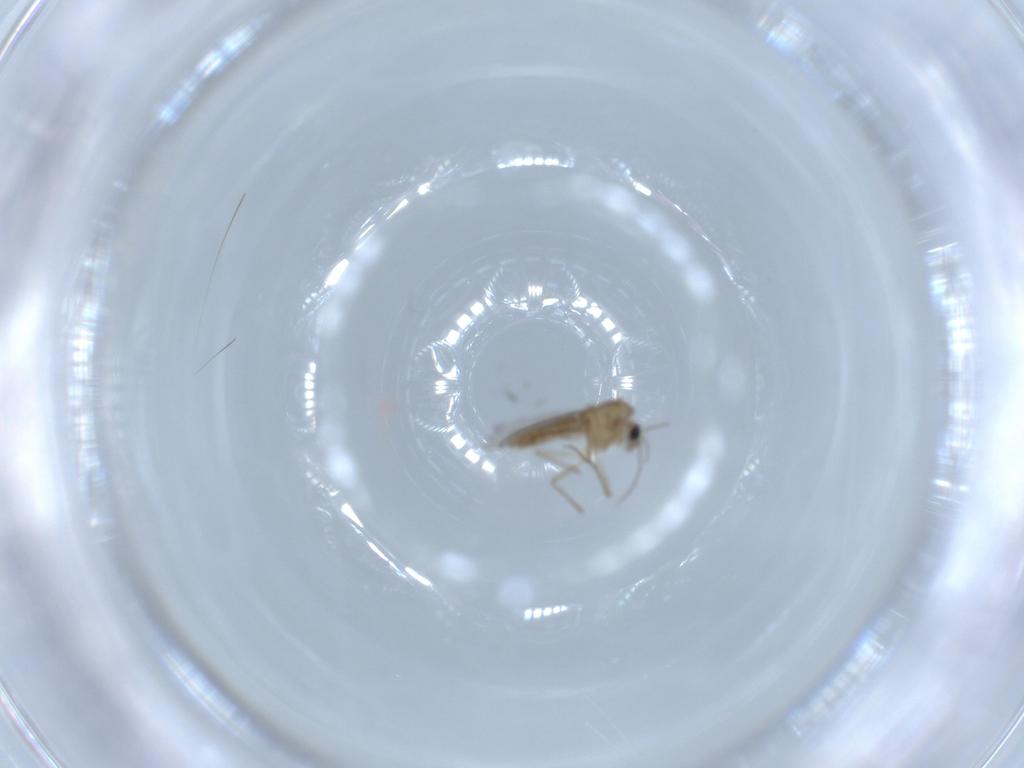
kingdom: Animalia
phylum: Arthropoda
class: Insecta
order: Diptera
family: Chironomidae
